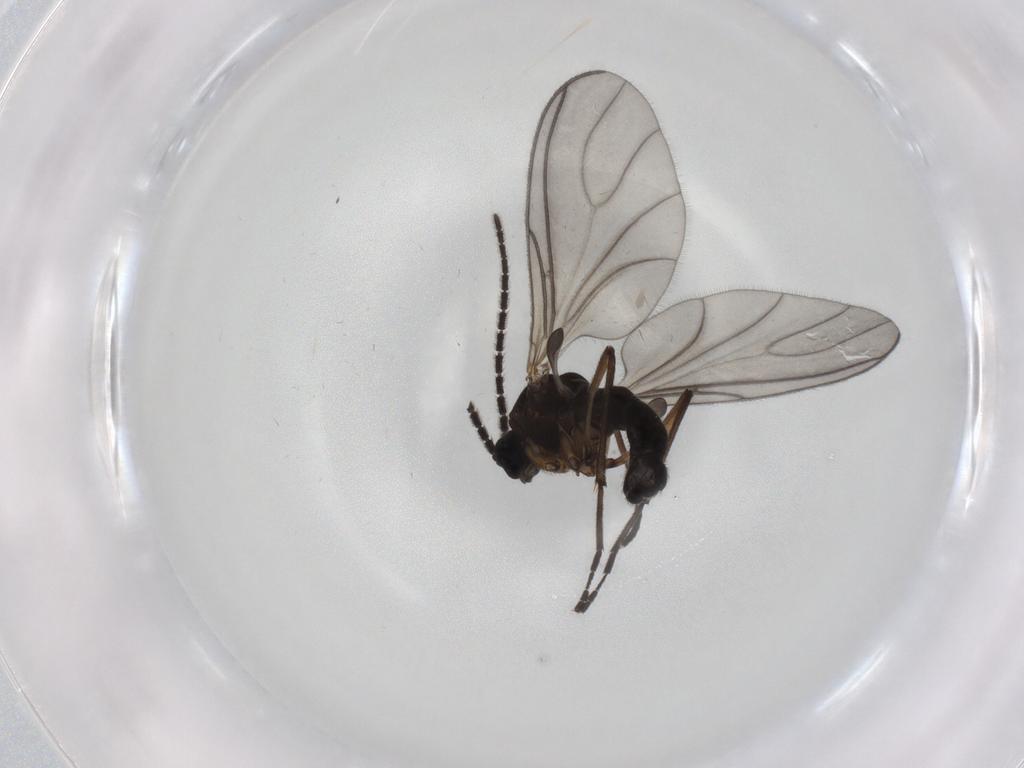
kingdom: Animalia
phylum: Arthropoda
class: Insecta
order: Diptera
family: Sciaridae
